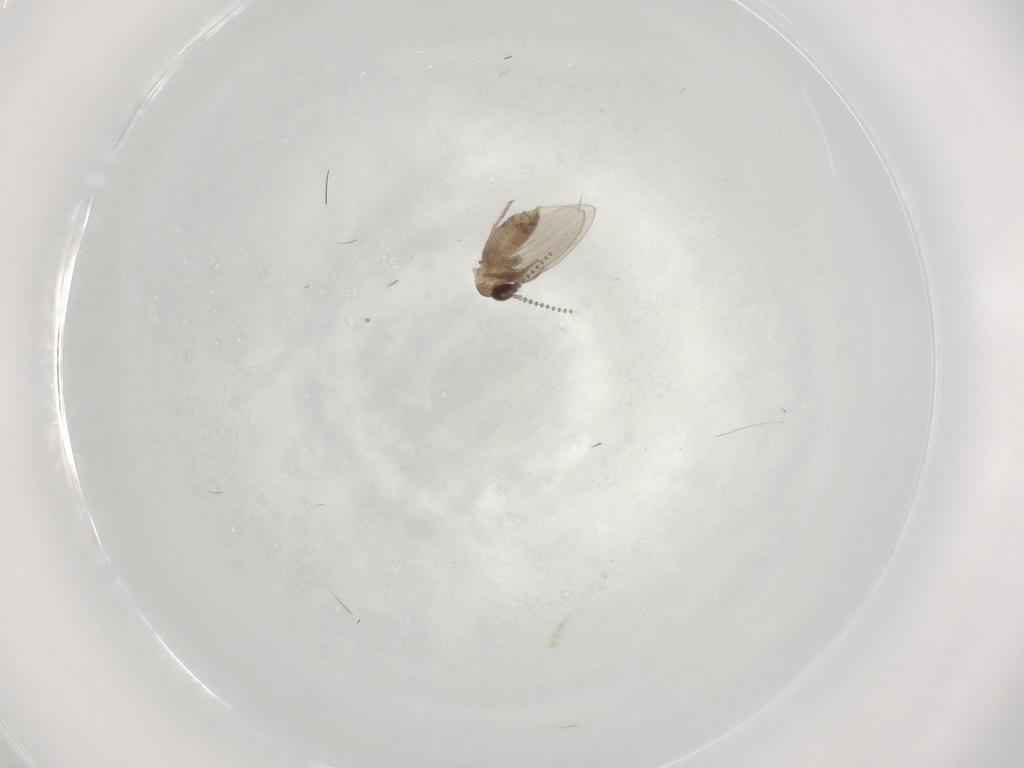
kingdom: Animalia
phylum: Arthropoda
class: Insecta
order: Diptera
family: Cecidomyiidae
